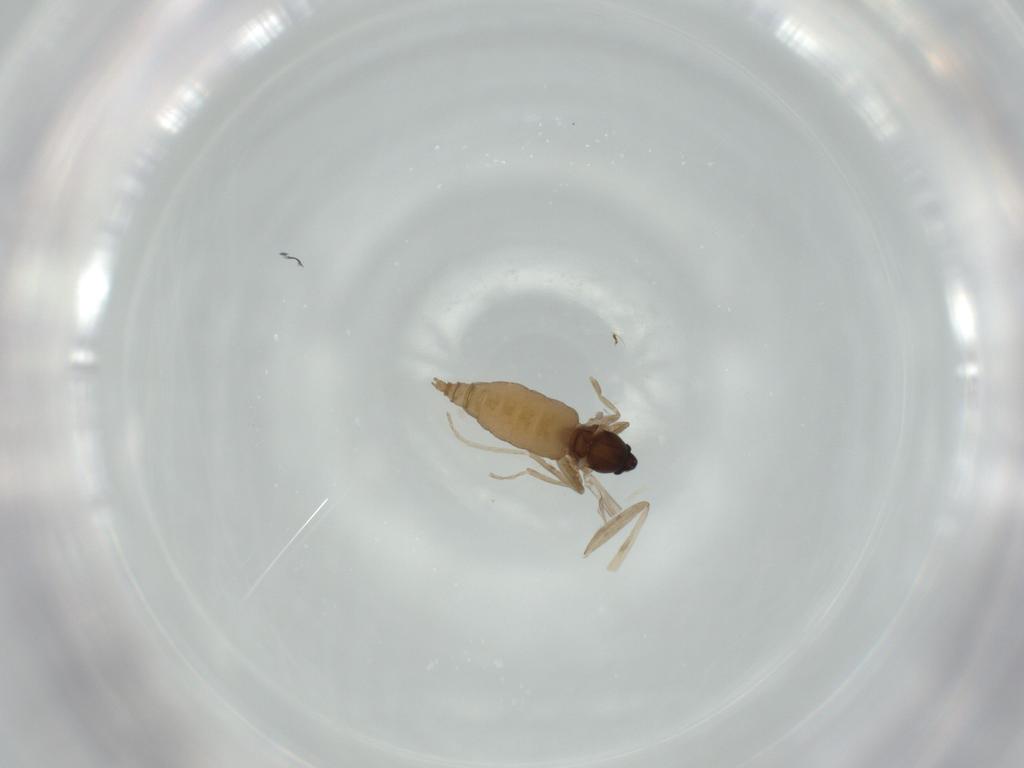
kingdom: Animalia
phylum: Arthropoda
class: Insecta
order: Diptera
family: Cecidomyiidae
